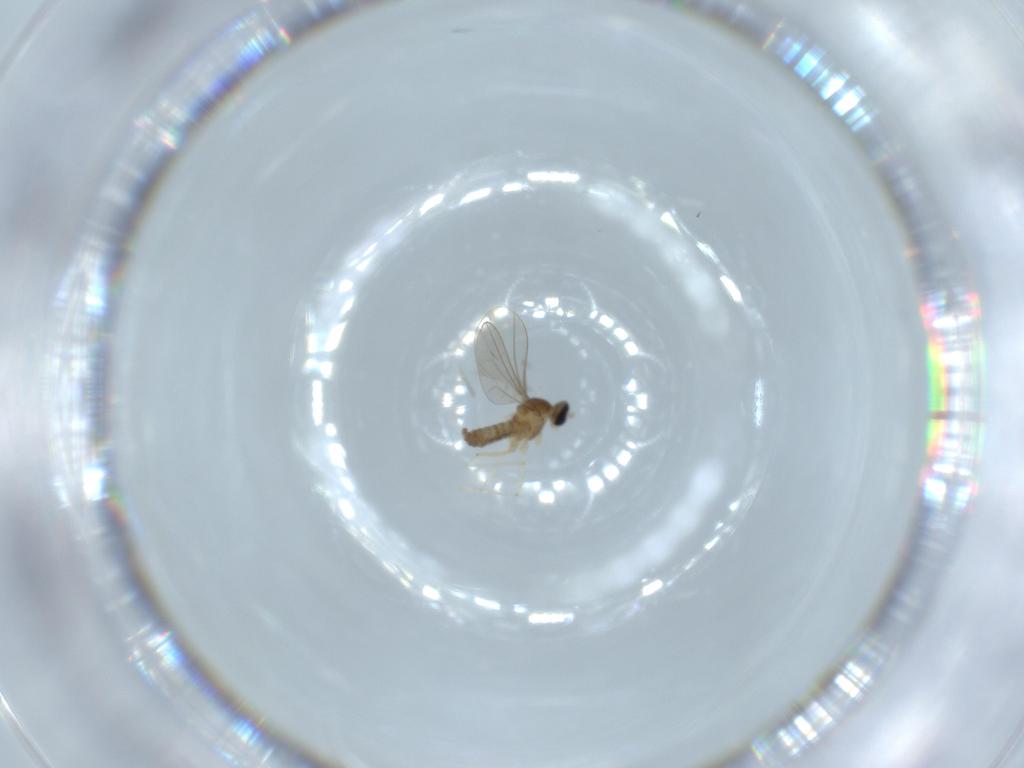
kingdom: Animalia
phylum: Arthropoda
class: Insecta
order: Diptera
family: Cecidomyiidae
